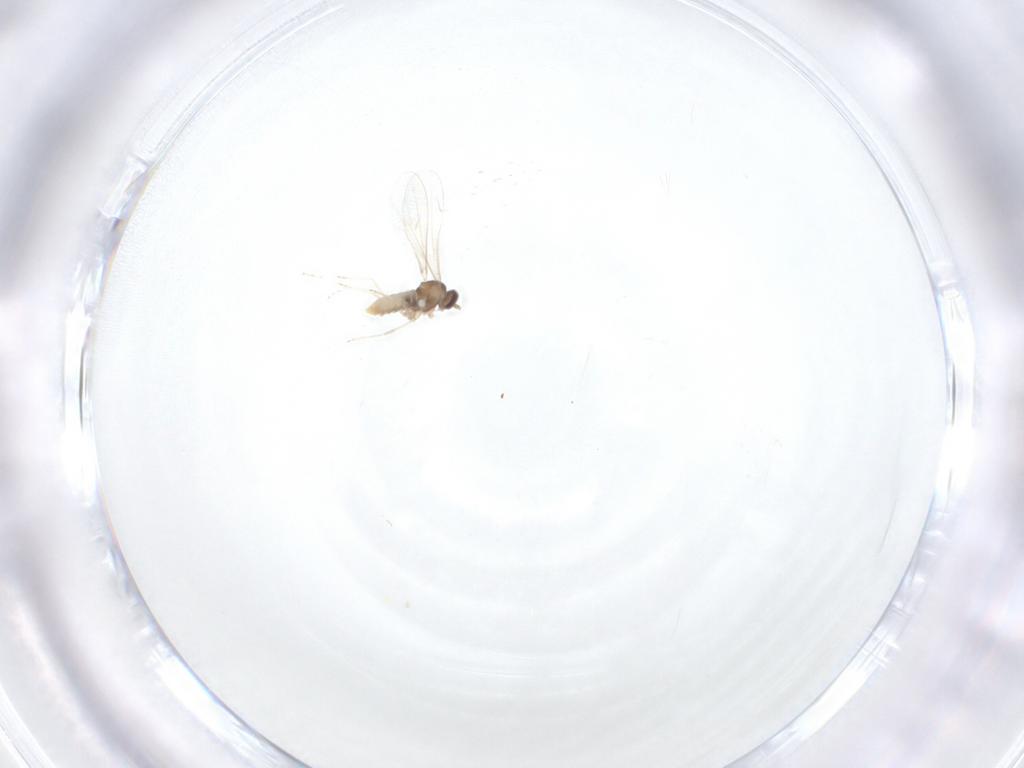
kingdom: Animalia
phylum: Arthropoda
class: Insecta
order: Diptera
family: Cecidomyiidae
